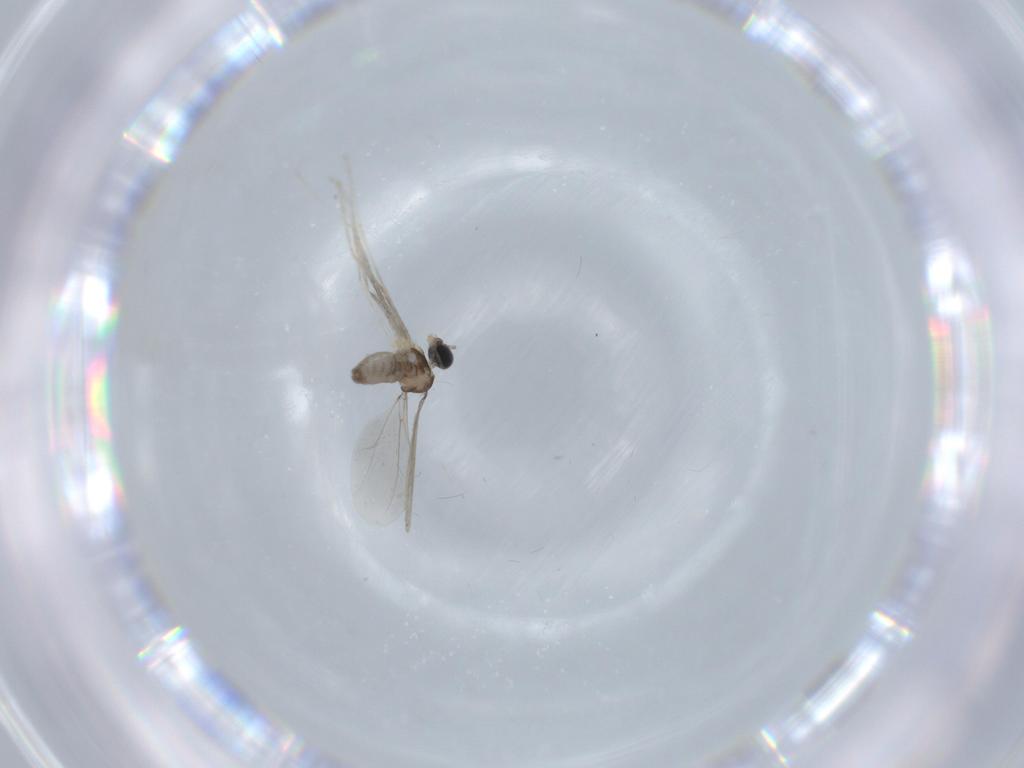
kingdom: Animalia
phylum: Arthropoda
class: Insecta
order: Diptera
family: Cecidomyiidae
